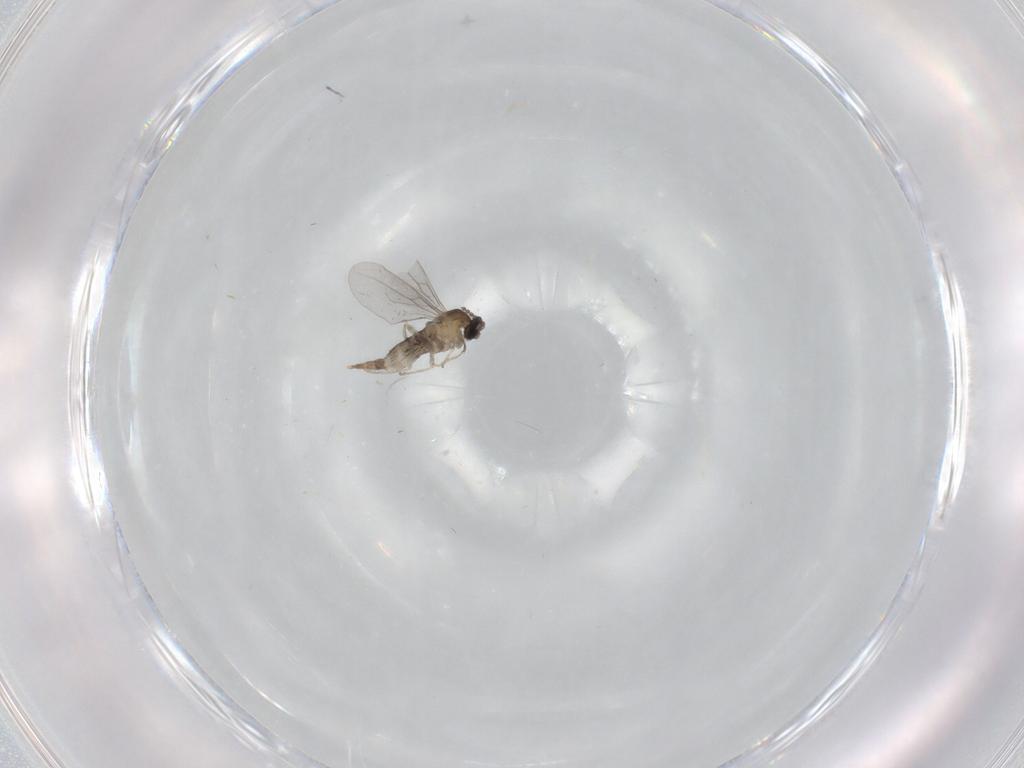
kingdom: Animalia
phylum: Arthropoda
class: Insecta
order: Diptera
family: Cecidomyiidae
